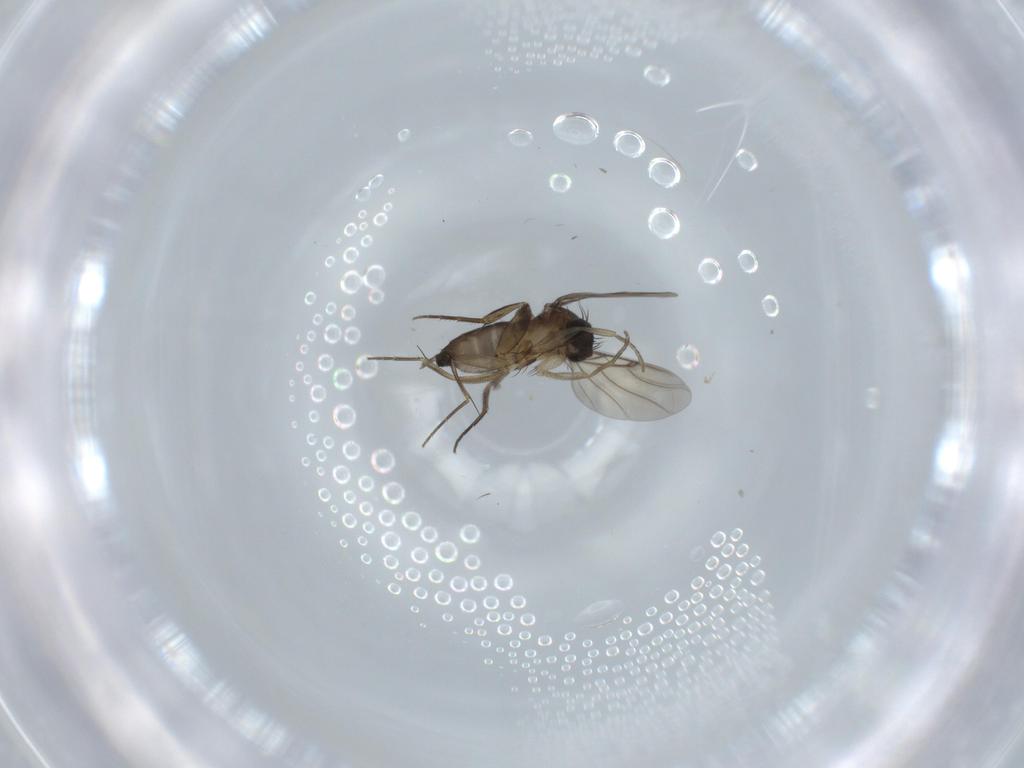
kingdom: Animalia
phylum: Arthropoda
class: Insecta
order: Diptera
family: Phoridae
